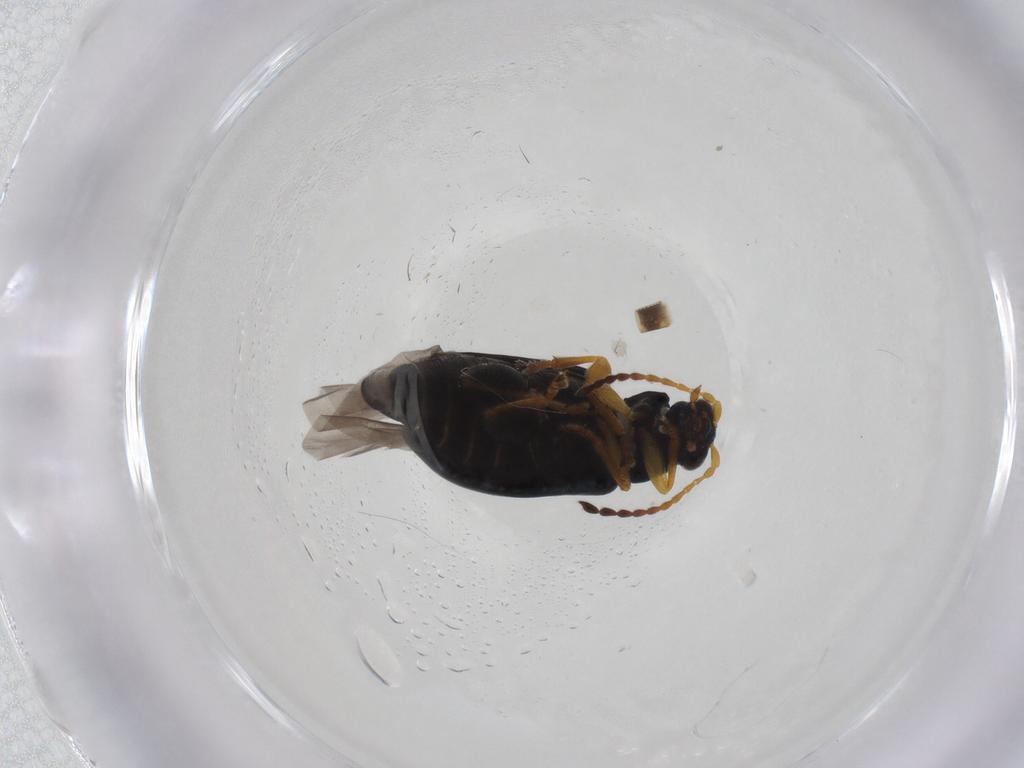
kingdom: Animalia
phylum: Arthropoda
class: Insecta
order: Coleoptera
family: Chrysomelidae
